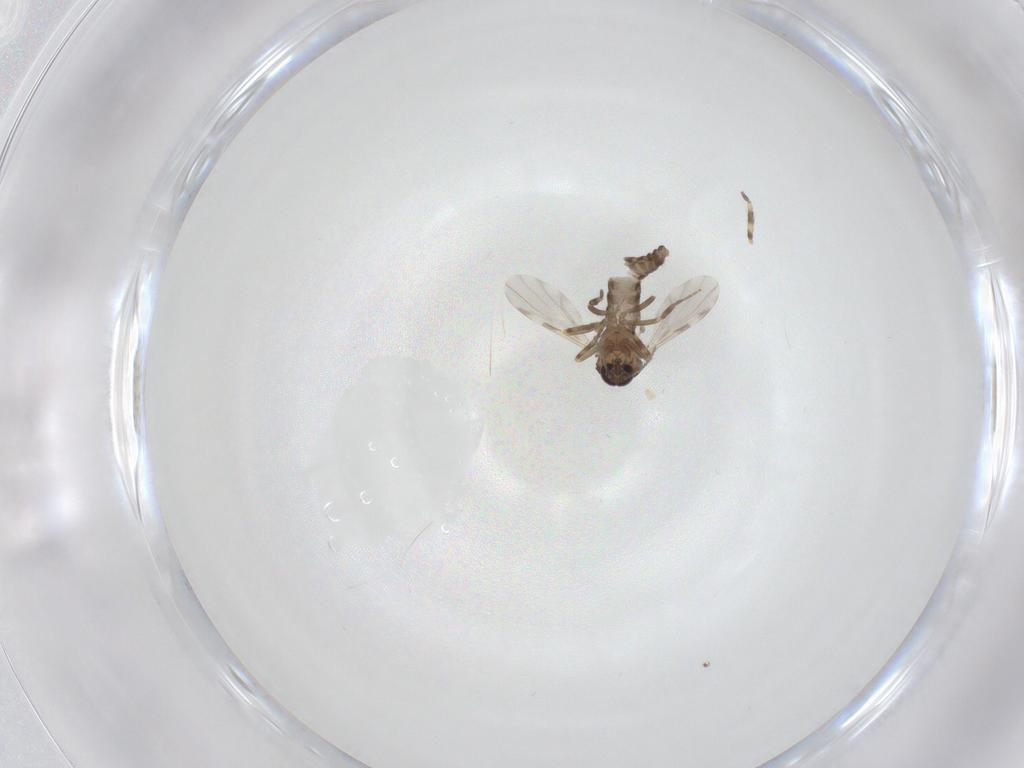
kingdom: Animalia
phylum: Arthropoda
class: Insecta
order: Diptera
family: Ceratopogonidae
